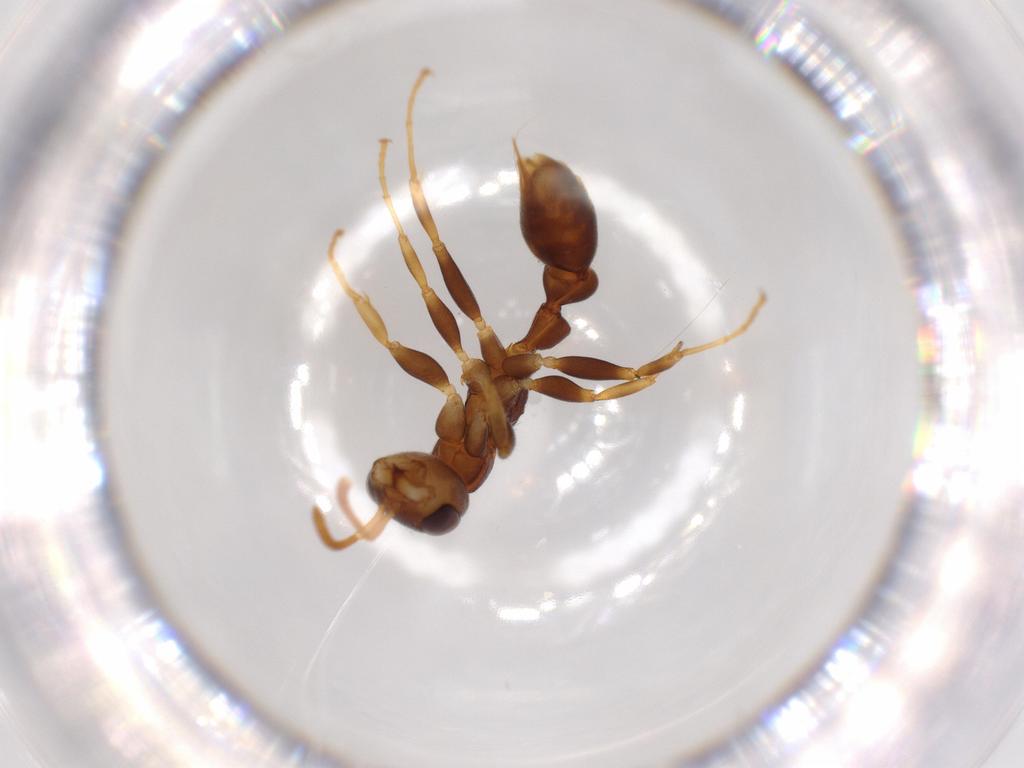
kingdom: Animalia
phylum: Arthropoda
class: Insecta
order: Hymenoptera
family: Formicidae
